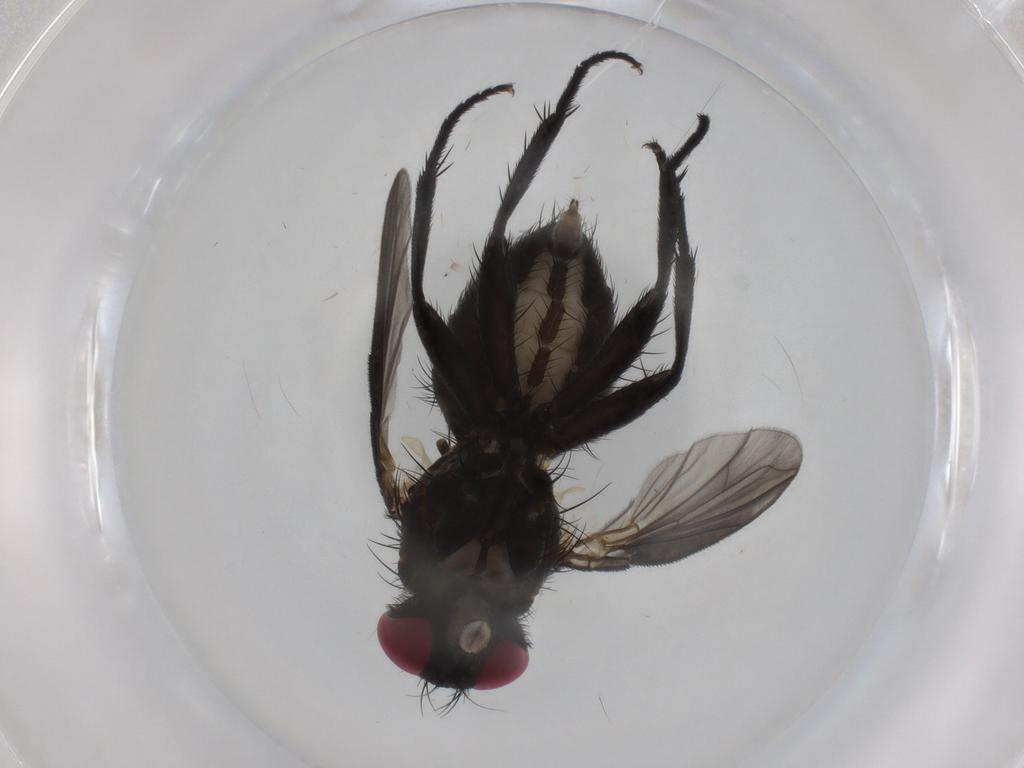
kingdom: Animalia
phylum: Arthropoda
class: Insecta
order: Diptera
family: Calliphoridae
